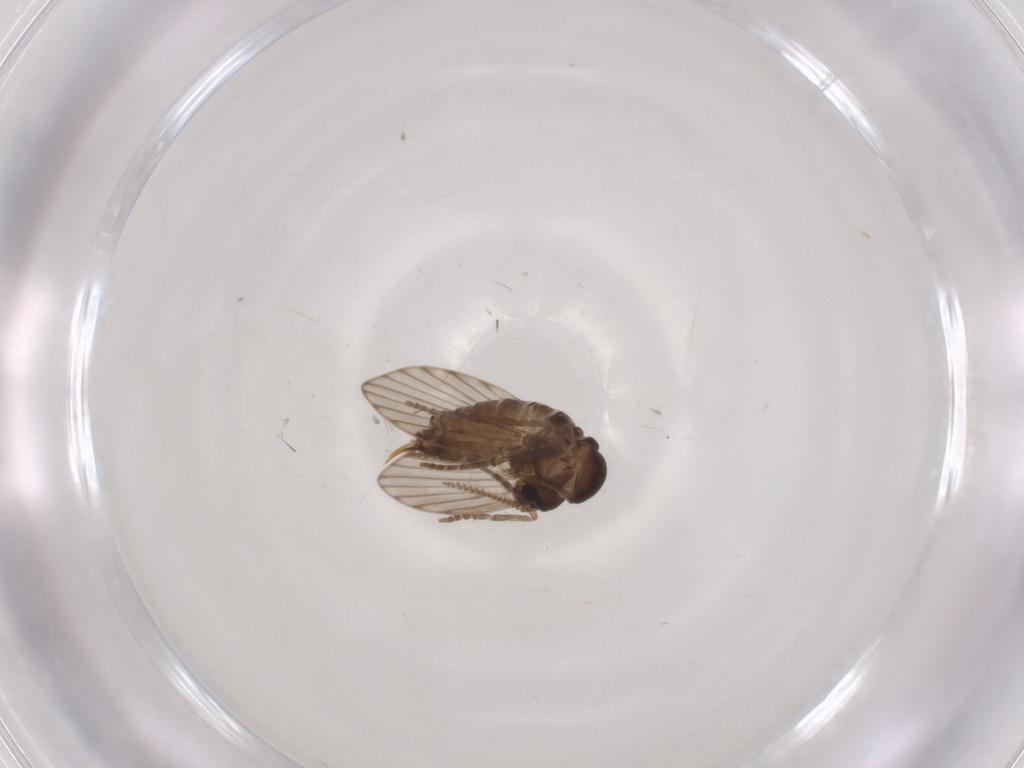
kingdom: Animalia
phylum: Arthropoda
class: Insecta
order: Diptera
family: Psychodidae
